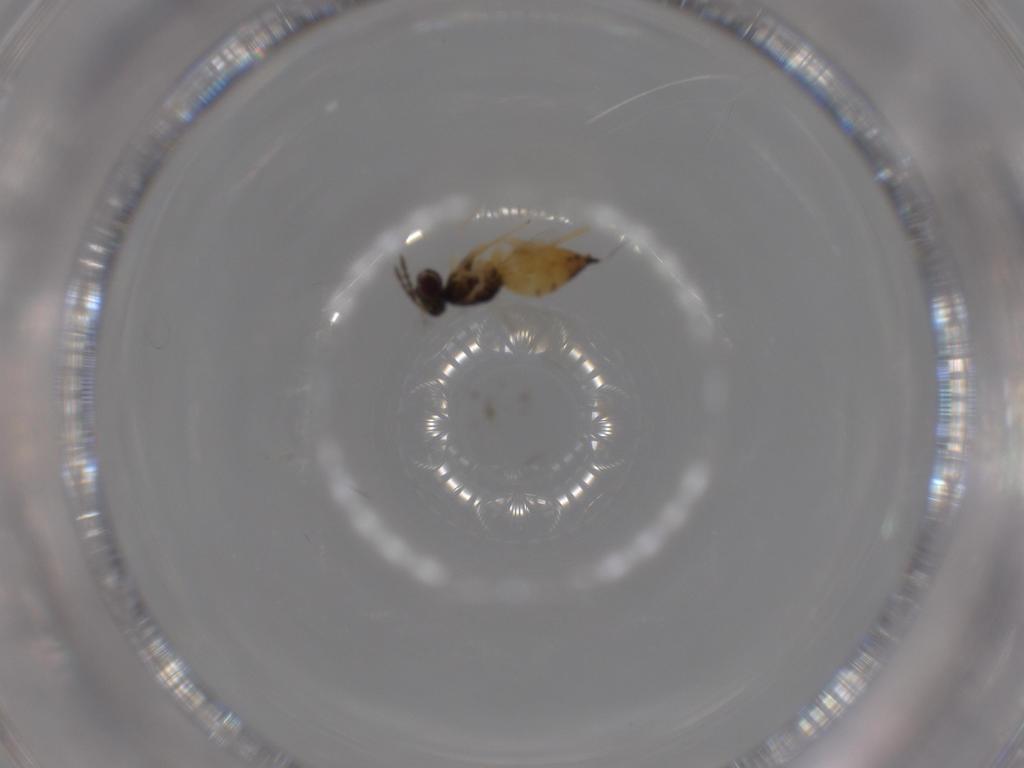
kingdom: Animalia
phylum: Arthropoda
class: Insecta
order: Hymenoptera
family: Eulophidae
